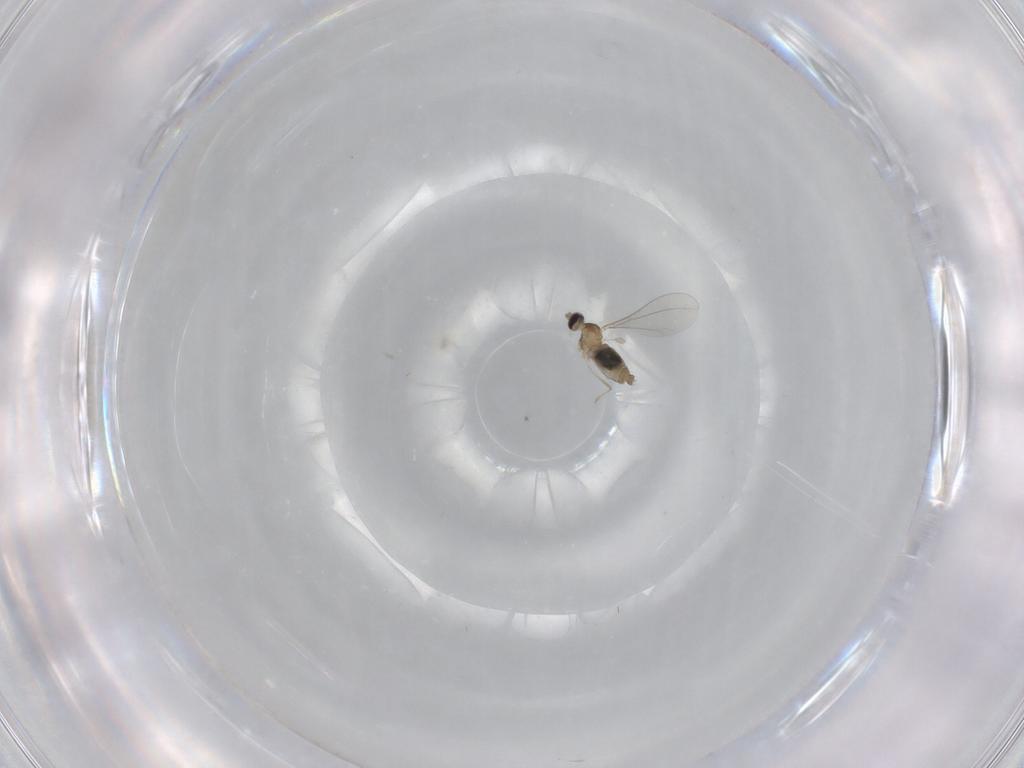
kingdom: Animalia
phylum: Arthropoda
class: Insecta
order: Diptera
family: Cecidomyiidae
